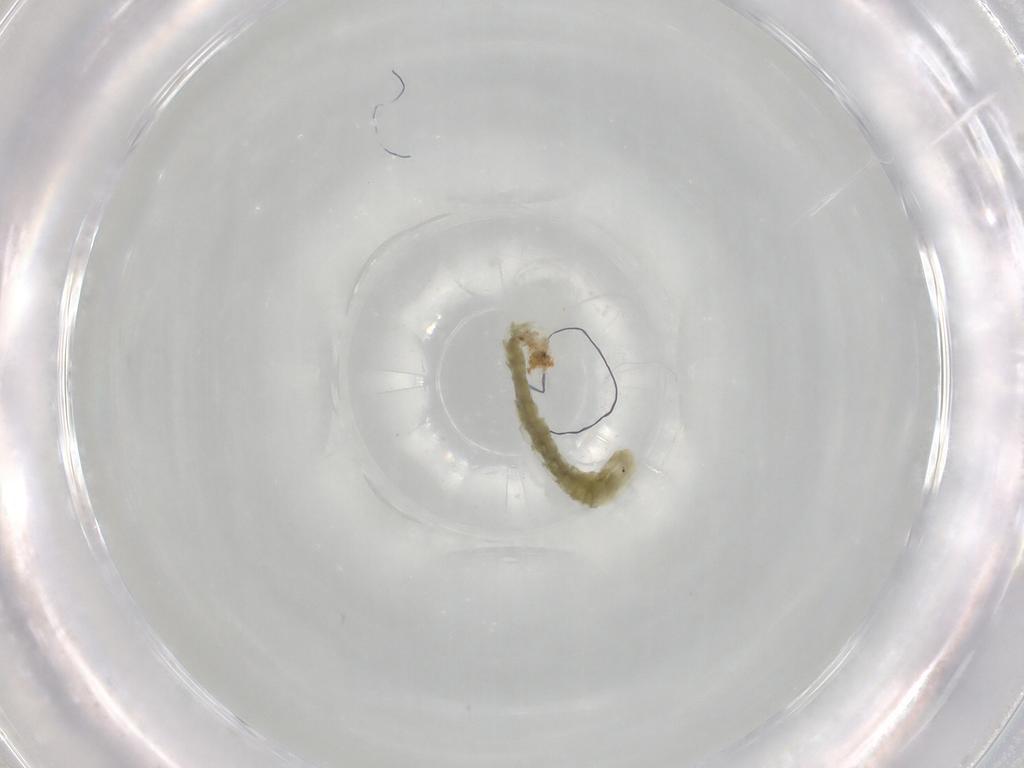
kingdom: Animalia
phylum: Arthropoda
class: Insecta
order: Diptera
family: Chironomidae
